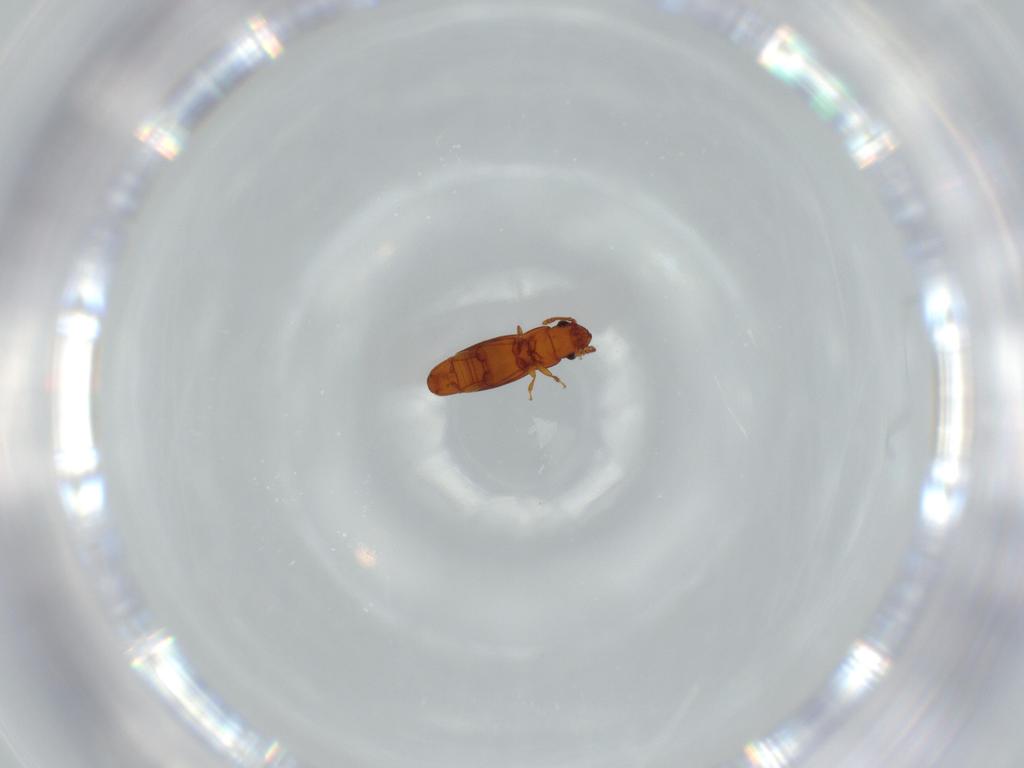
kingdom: Animalia
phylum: Arthropoda
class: Insecta
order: Coleoptera
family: Smicripidae
